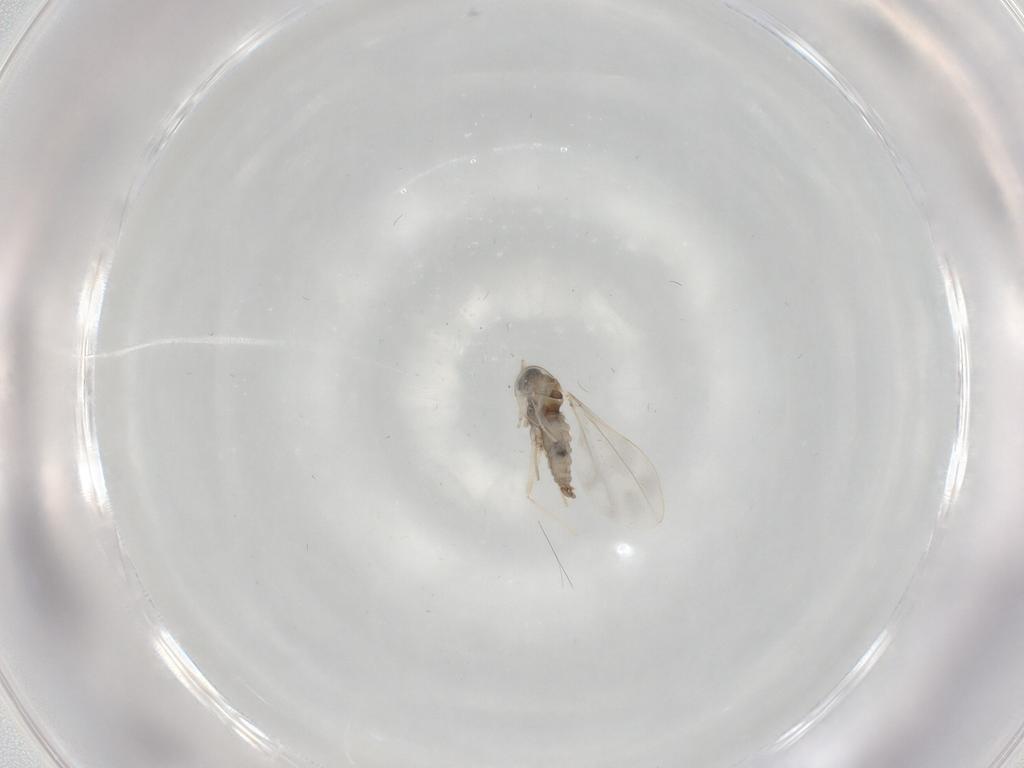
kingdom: Animalia
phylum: Arthropoda
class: Insecta
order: Diptera
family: Cecidomyiidae
